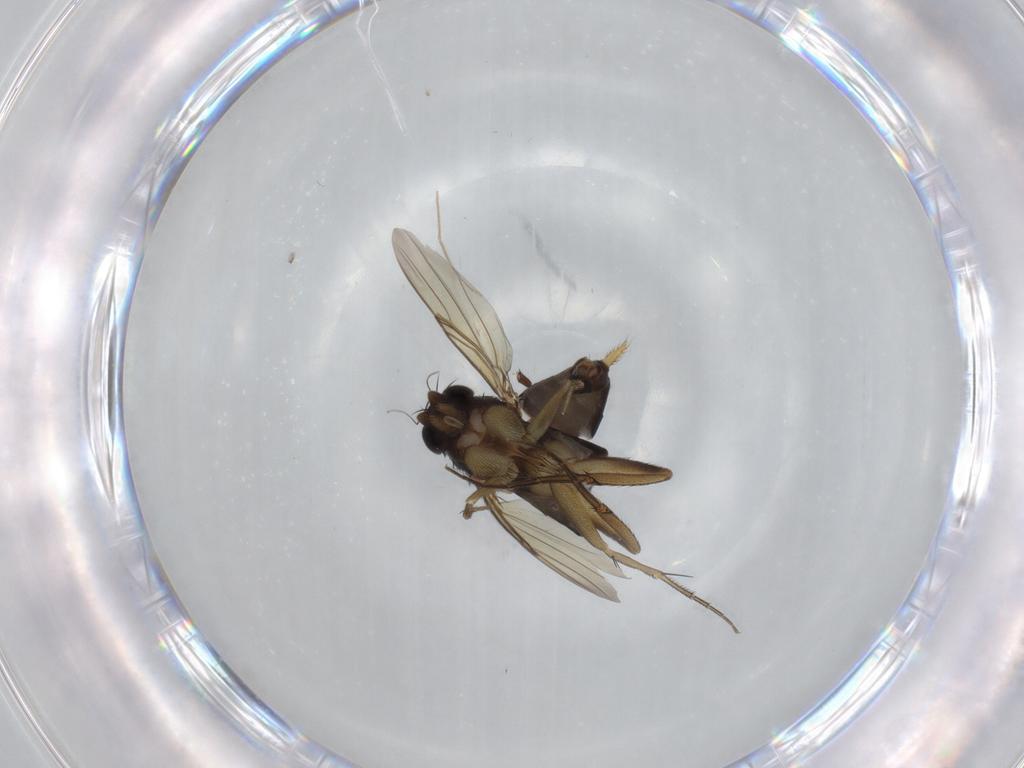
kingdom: Animalia
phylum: Arthropoda
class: Insecta
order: Diptera
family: Phoridae
